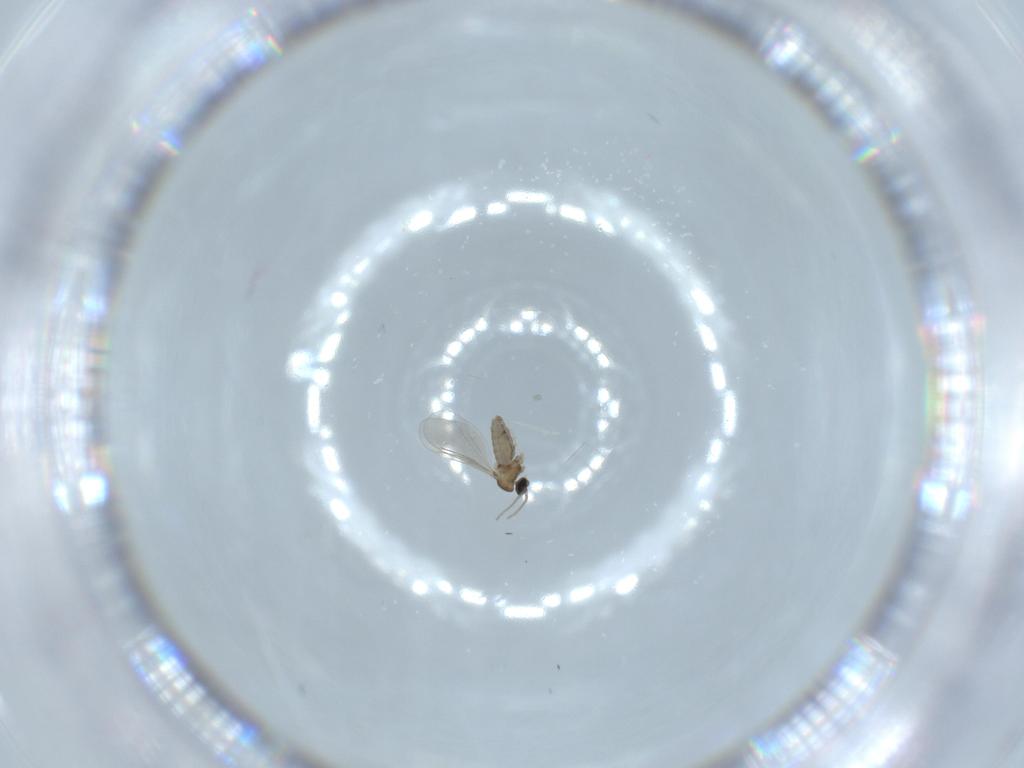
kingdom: Animalia
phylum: Arthropoda
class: Insecta
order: Diptera
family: Cecidomyiidae
